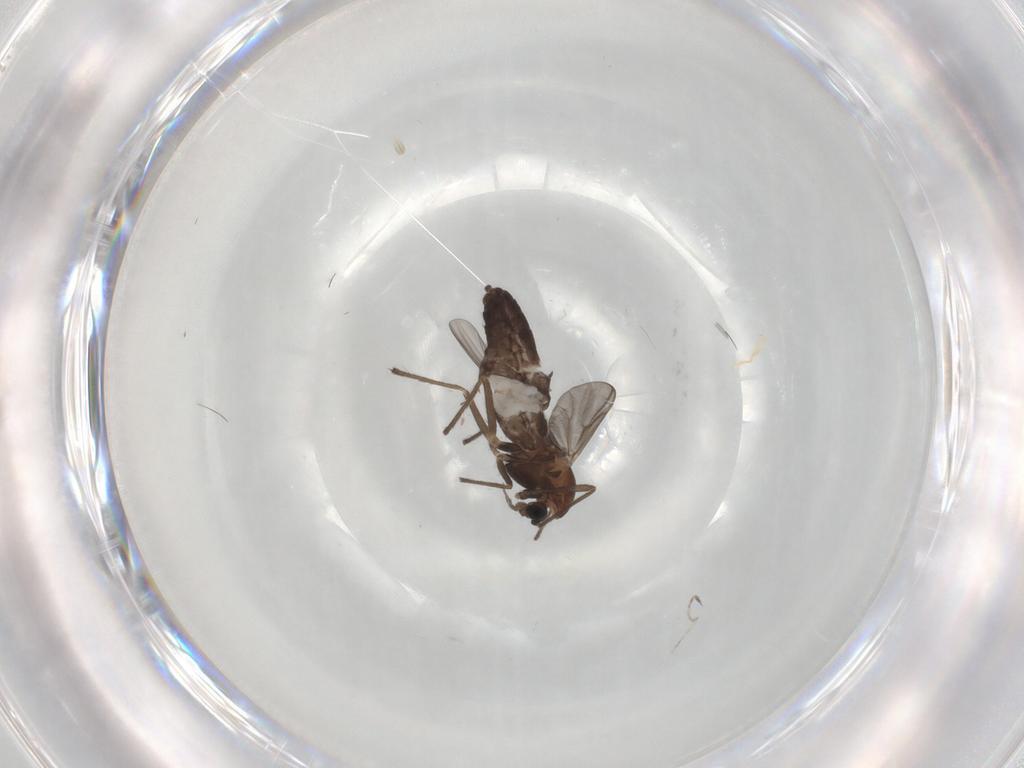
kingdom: Animalia
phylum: Arthropoda
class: Insecta
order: Diptera
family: Chironomidae
